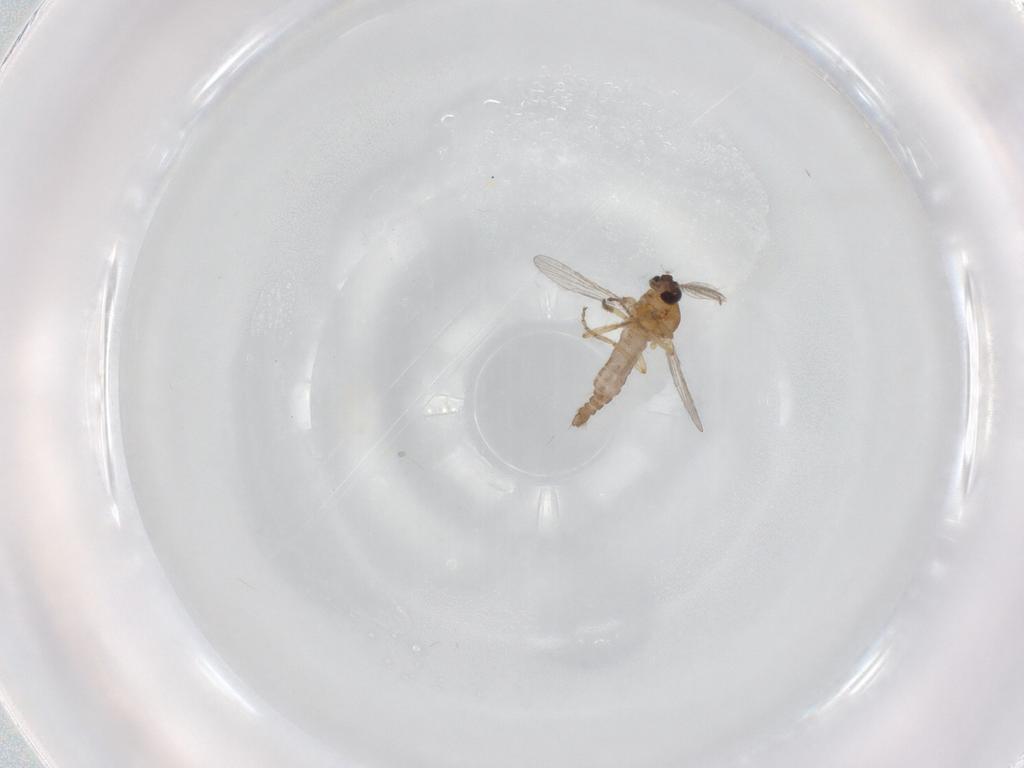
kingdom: Animalia
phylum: Arthropoda
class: Insecta
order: Diptera
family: Chironomidae
